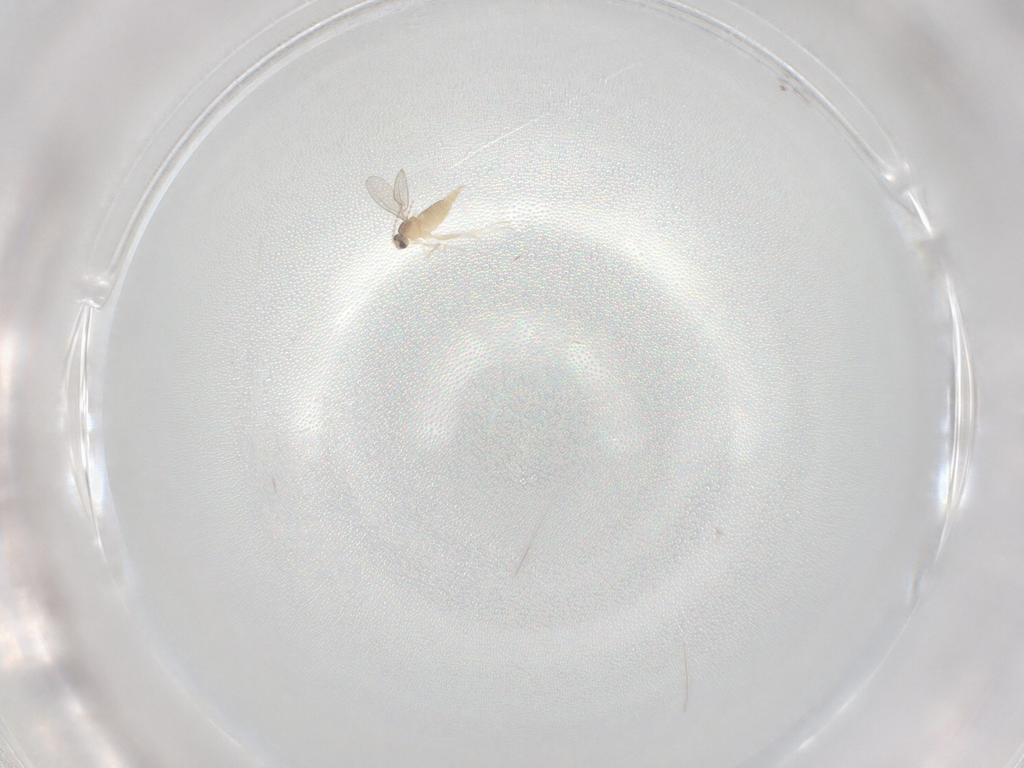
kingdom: Animalia
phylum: Arthropoda
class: Insecta
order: Diptera
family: Cecidomyiidae
